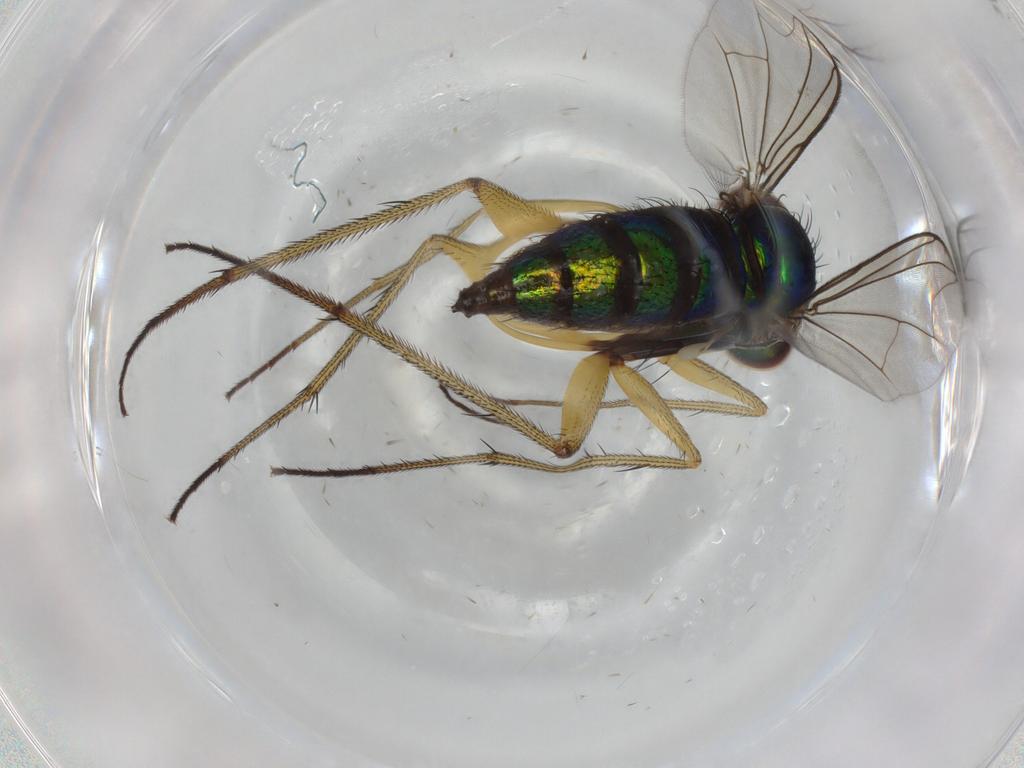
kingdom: Animalia
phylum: Arthropoda
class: Insecta
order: Diptera
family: Dolichopodidae
